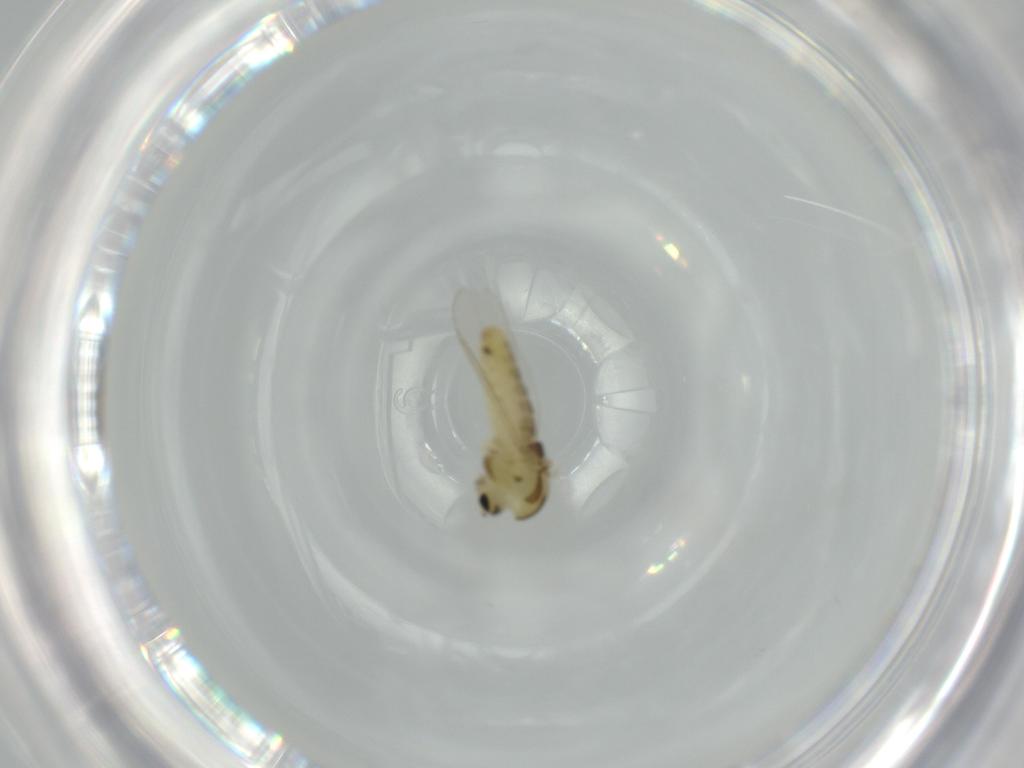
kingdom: Animalia
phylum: Arthropoda
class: Insecta
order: Diptera
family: Chironomidae
